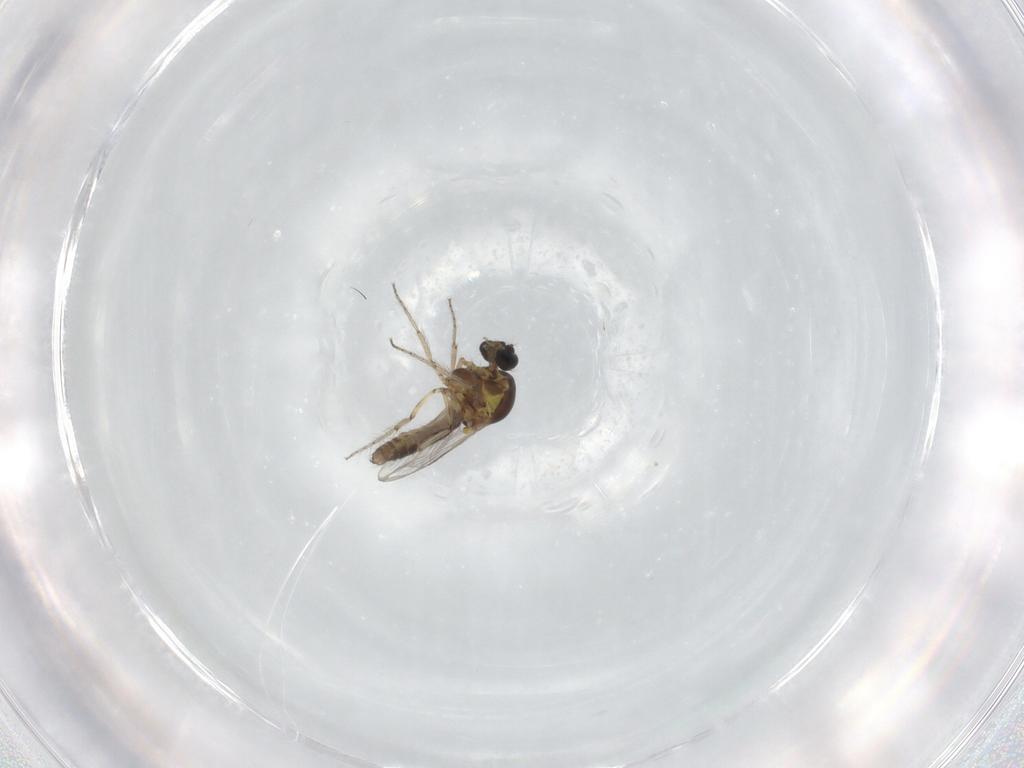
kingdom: Animalia
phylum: Arthropoda
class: Insecta
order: Diptera
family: Ceratopogonidae
